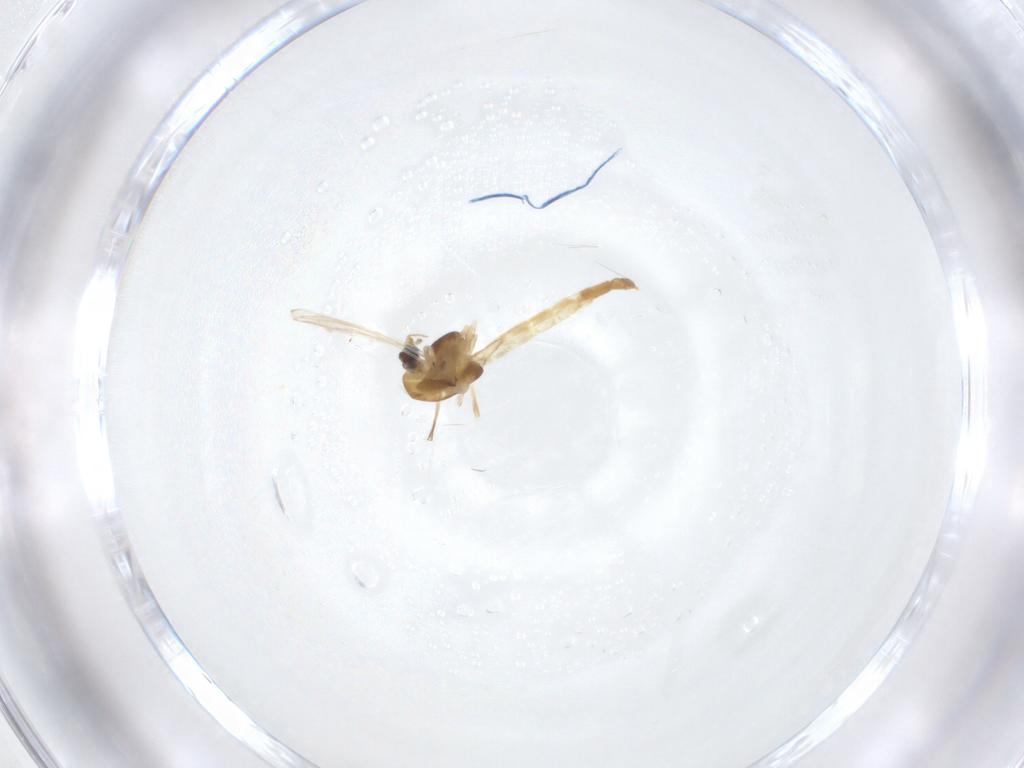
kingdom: Animalia
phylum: Arthropoda
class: Insecta
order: Diptera
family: Chironomidae
